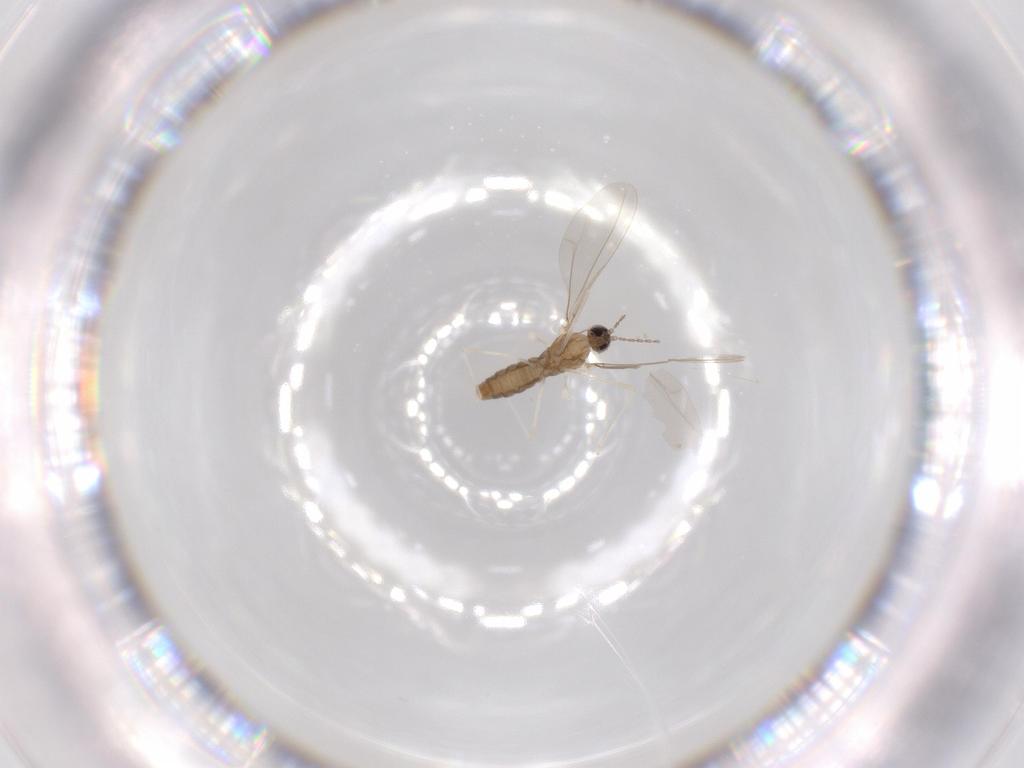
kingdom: Animalia
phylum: Arthropoda
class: Insecta
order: Diptera
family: Cecidomyiidae
